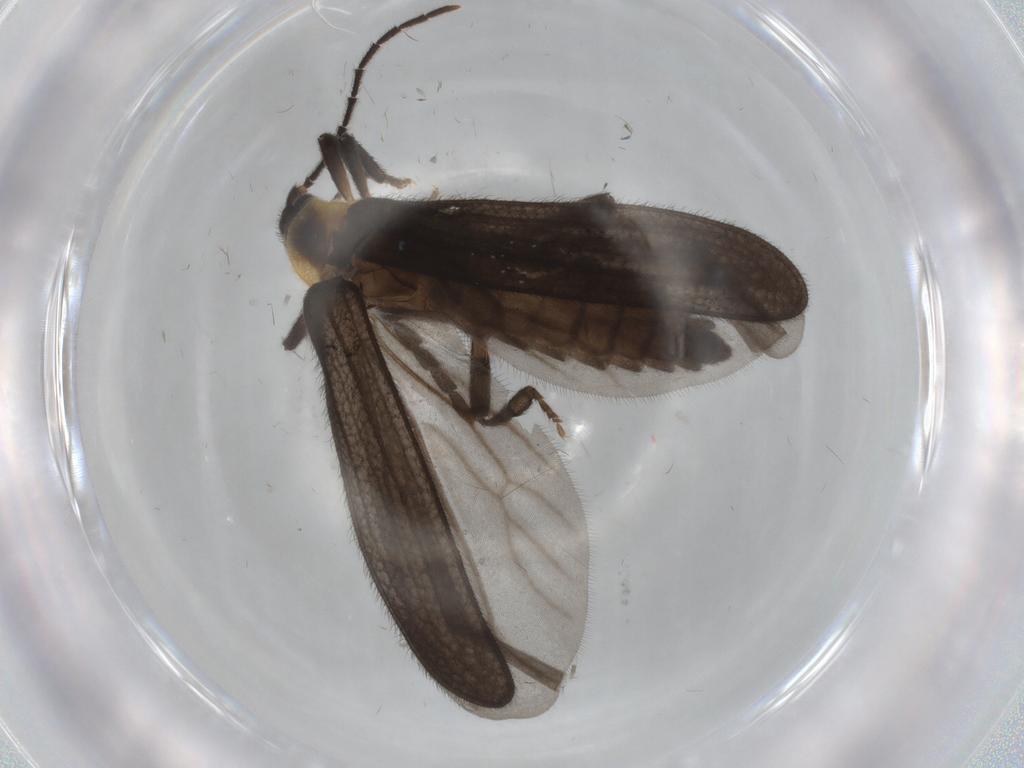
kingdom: Animalia
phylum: Arthropoda
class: Insecta
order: Coleoptera
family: Lycidae
